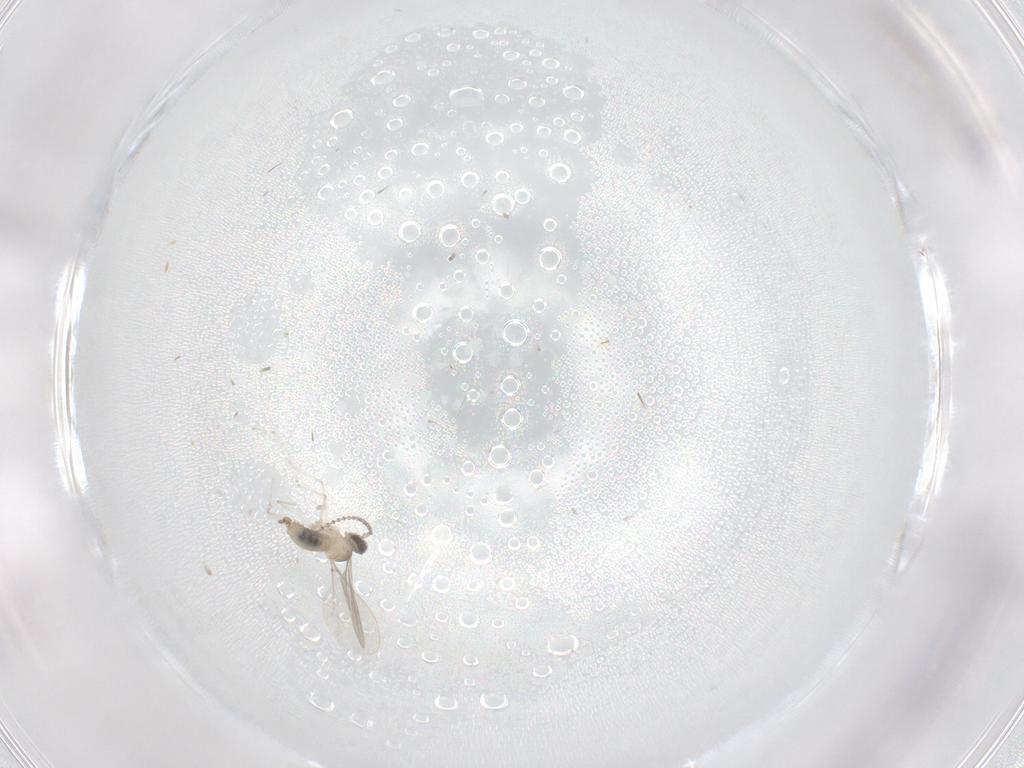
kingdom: Animalia
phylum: Arthropoda
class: Insecta
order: Diptera
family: Cecidomyiidae
